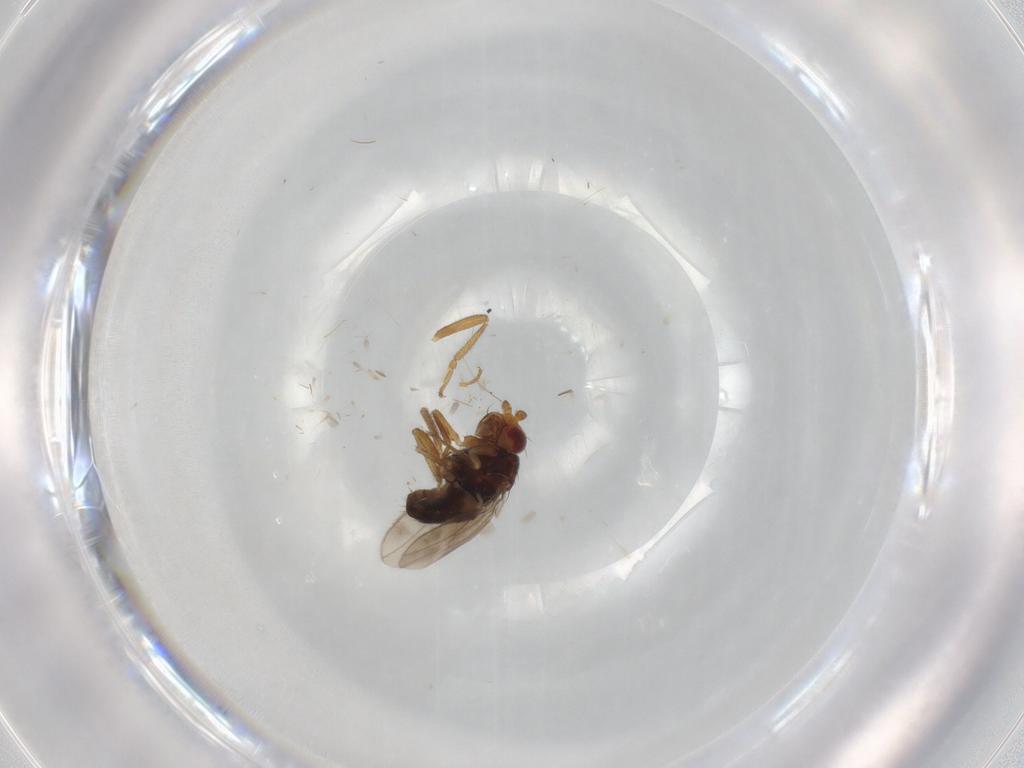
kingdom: Animalia
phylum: Arthropoda
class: Insecta
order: Diptera
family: Sphaeroceridae
